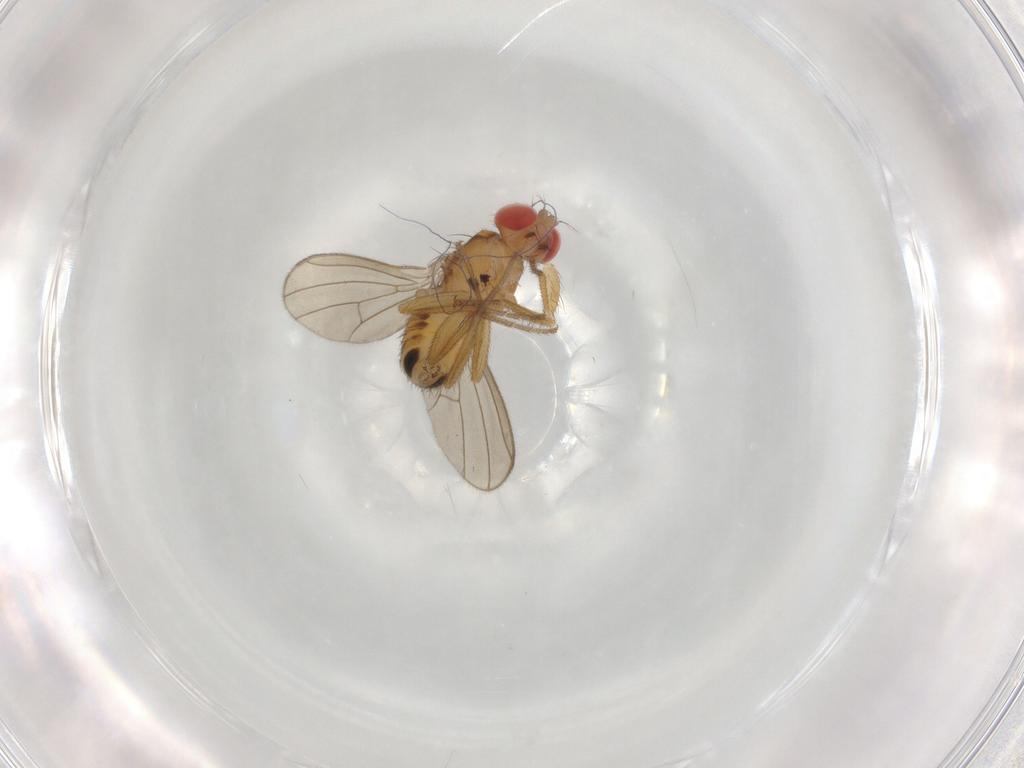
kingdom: Animalia
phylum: Arthropoda
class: Insecta
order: Diptera
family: Drosophilidae
